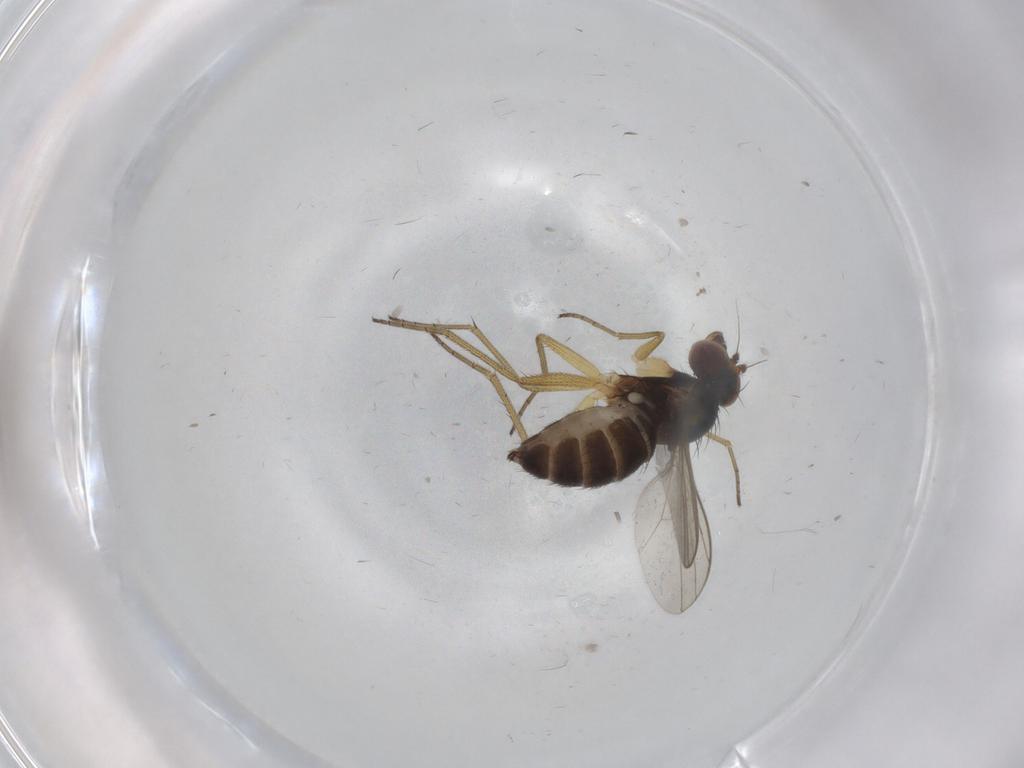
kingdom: Animalia
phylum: Arthropoda
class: Insecta
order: Diptera
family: Dolichopodidae
